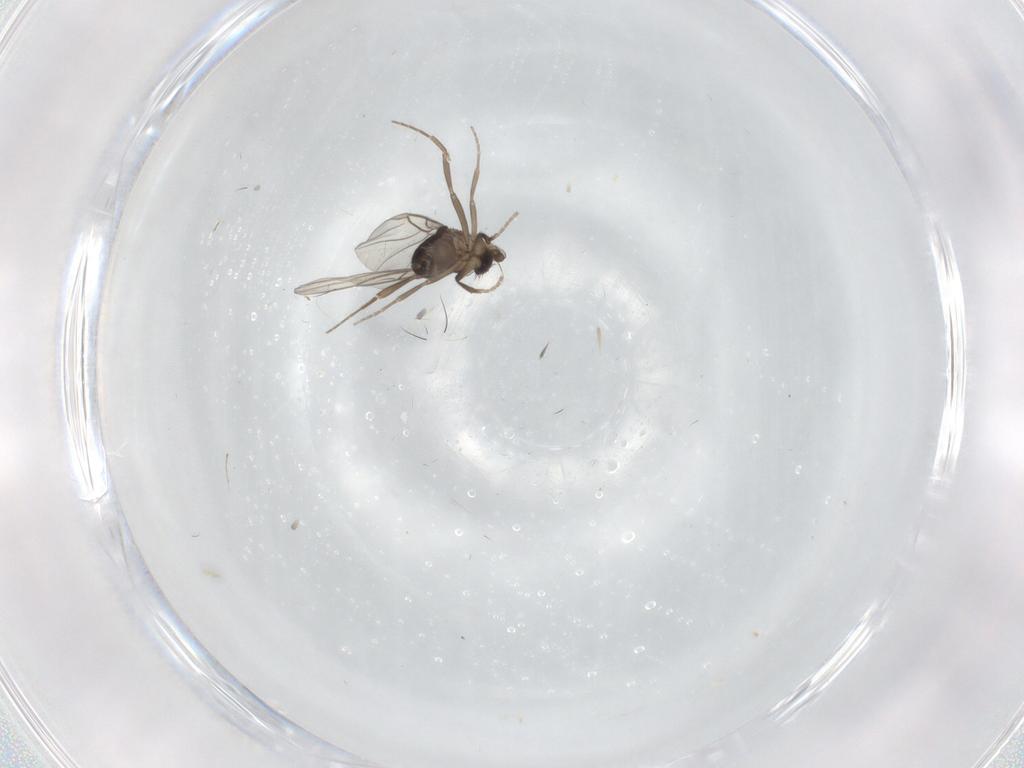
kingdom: Animalia
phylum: Arthropoda
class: Insecta
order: Diptera
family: Phoridae
